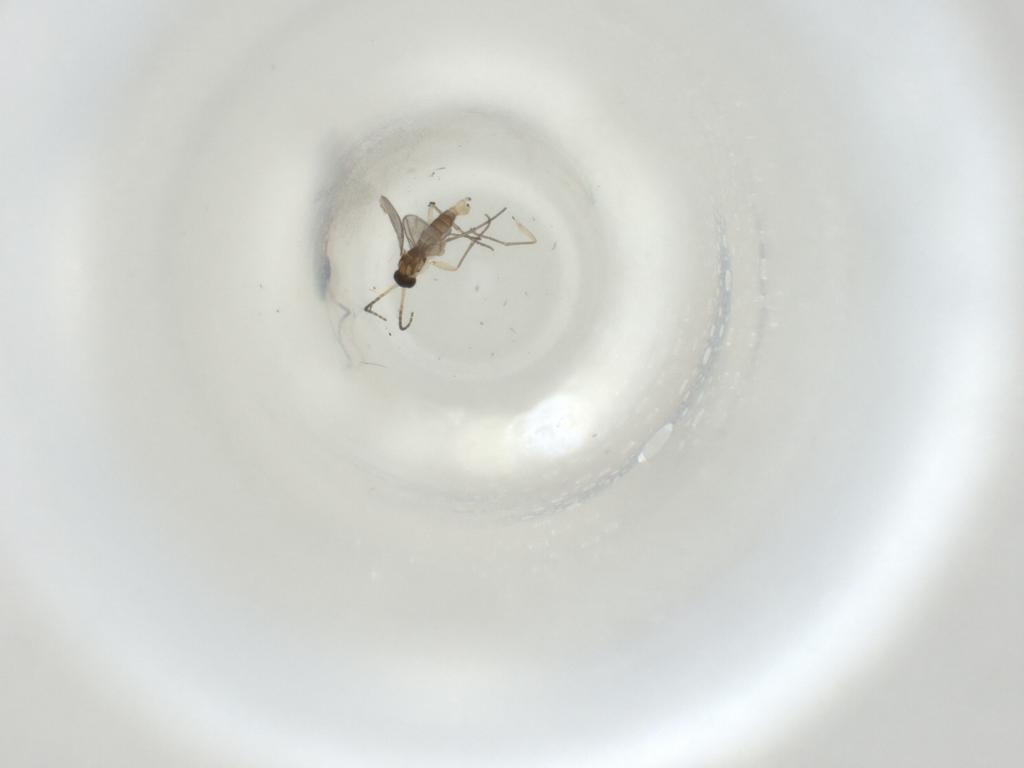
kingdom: Animalia
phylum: Arthropoda
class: Insecta
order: Diptera
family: Sciaridae
